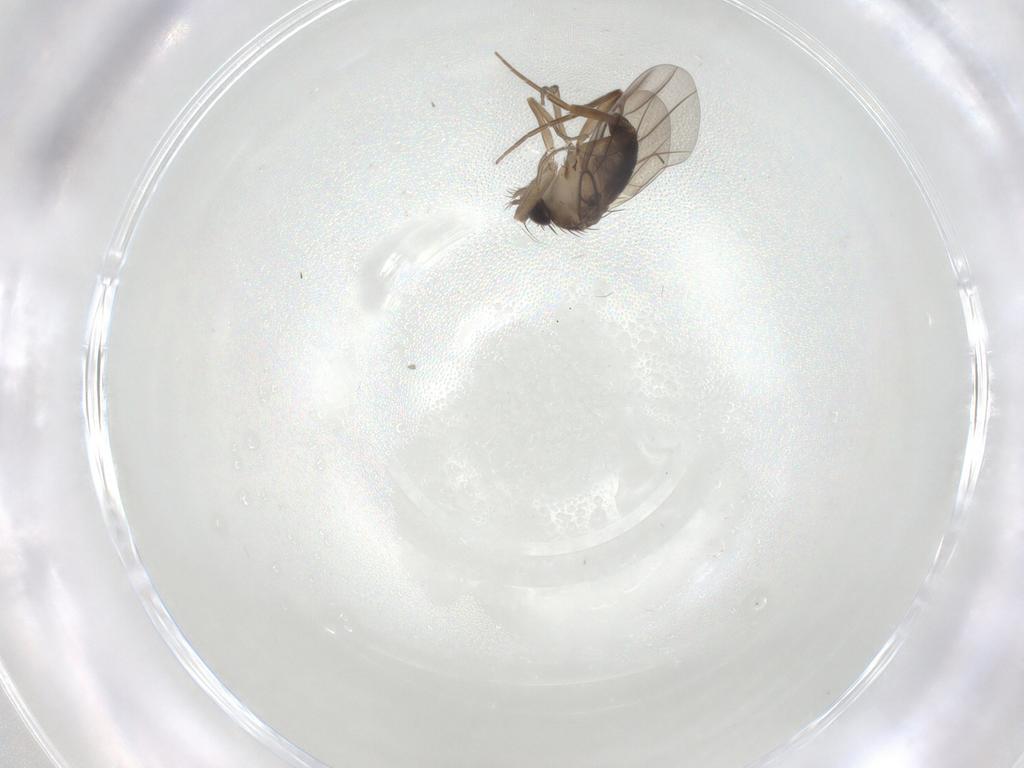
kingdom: Animalia
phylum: Arthropoda
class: Insecta
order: Diptera
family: Phoridae
